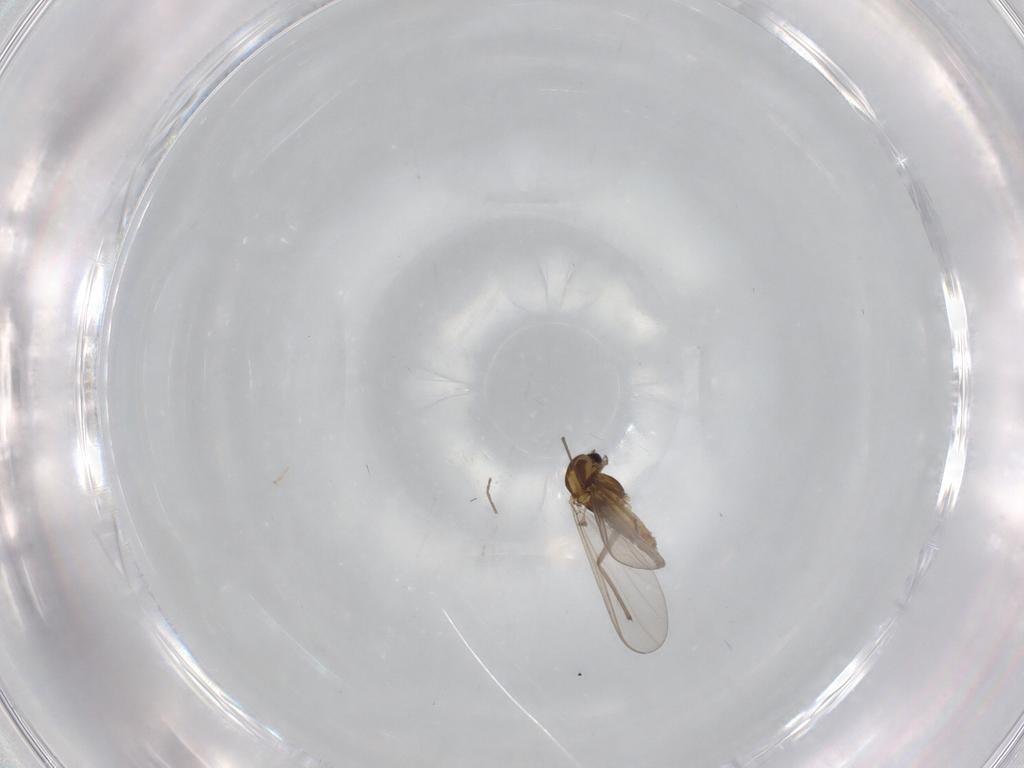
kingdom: Animalia
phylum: Arthropoda
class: Insecta
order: Diptera
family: Chironomidae
